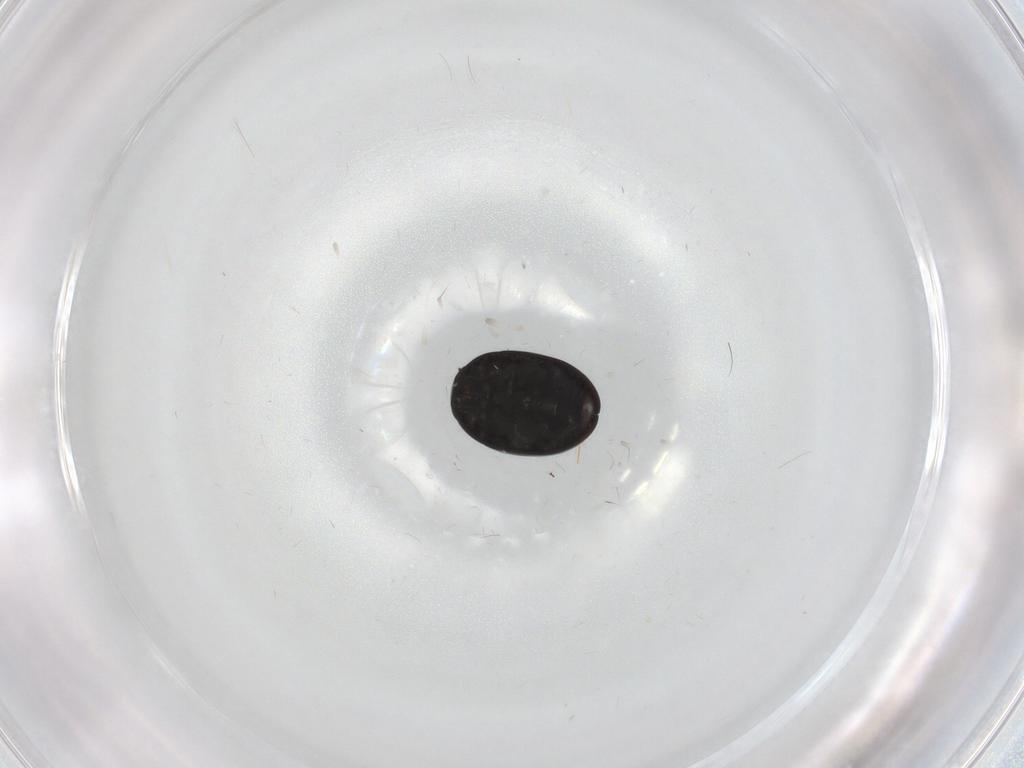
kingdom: Animalia
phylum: Arthropoda
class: Insecta
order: Coleoptera
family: Phalacridae
